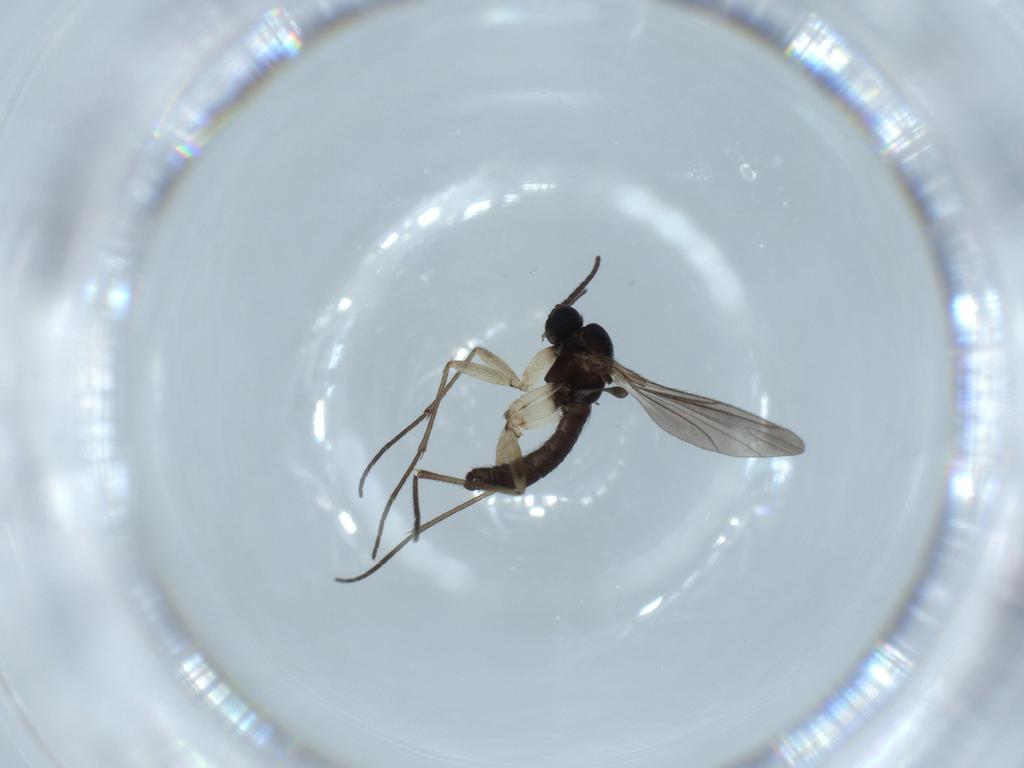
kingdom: Animalia
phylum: Arthropoda
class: Insecta
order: Diptera
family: Sciaridae
